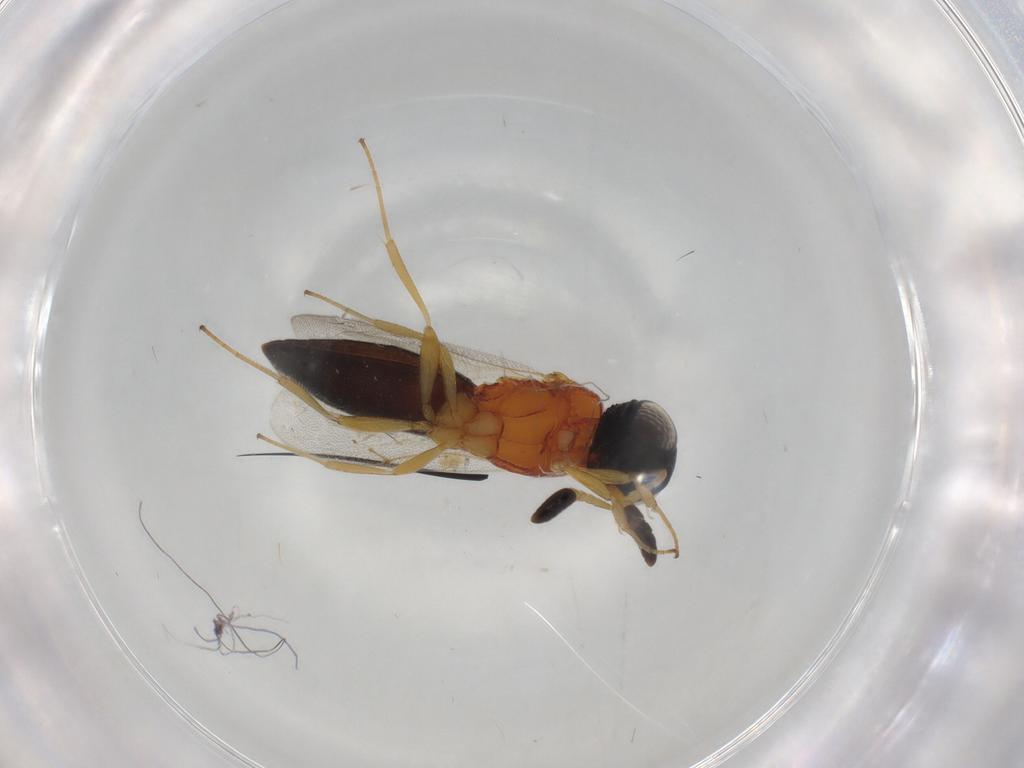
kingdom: Animalia
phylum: Arthropoda
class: Insecta
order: Hymenoptera
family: Scelionidae
